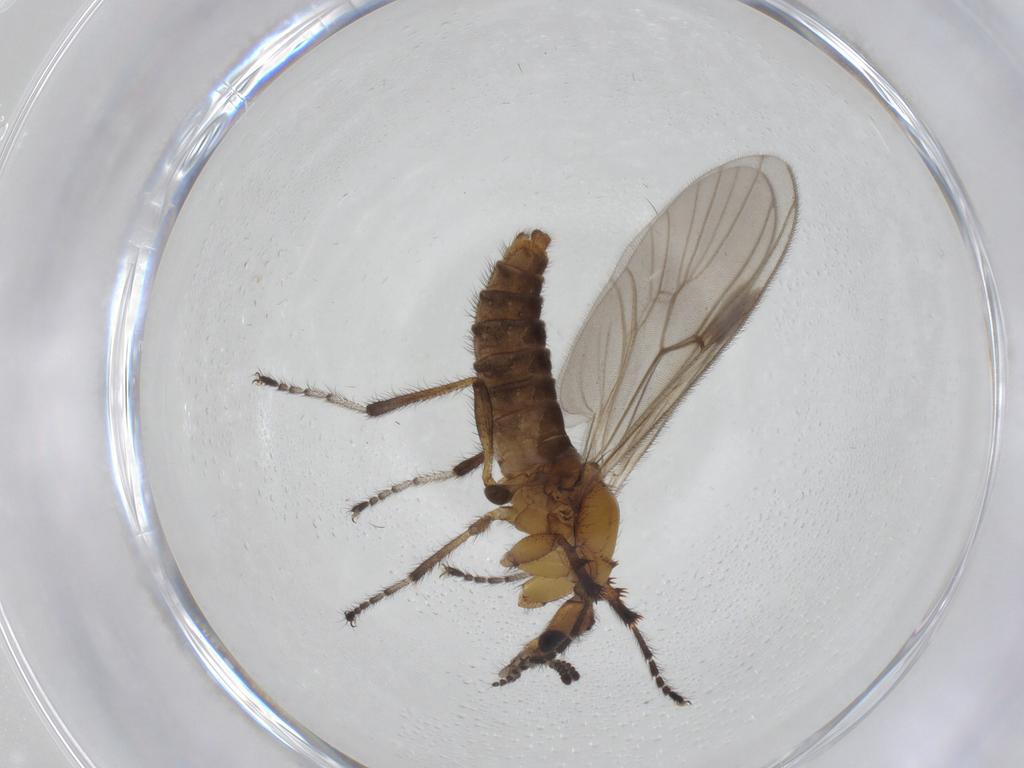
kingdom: Animalia
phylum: Arthropoda
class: Insecta
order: Diptera
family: Bibionidae
